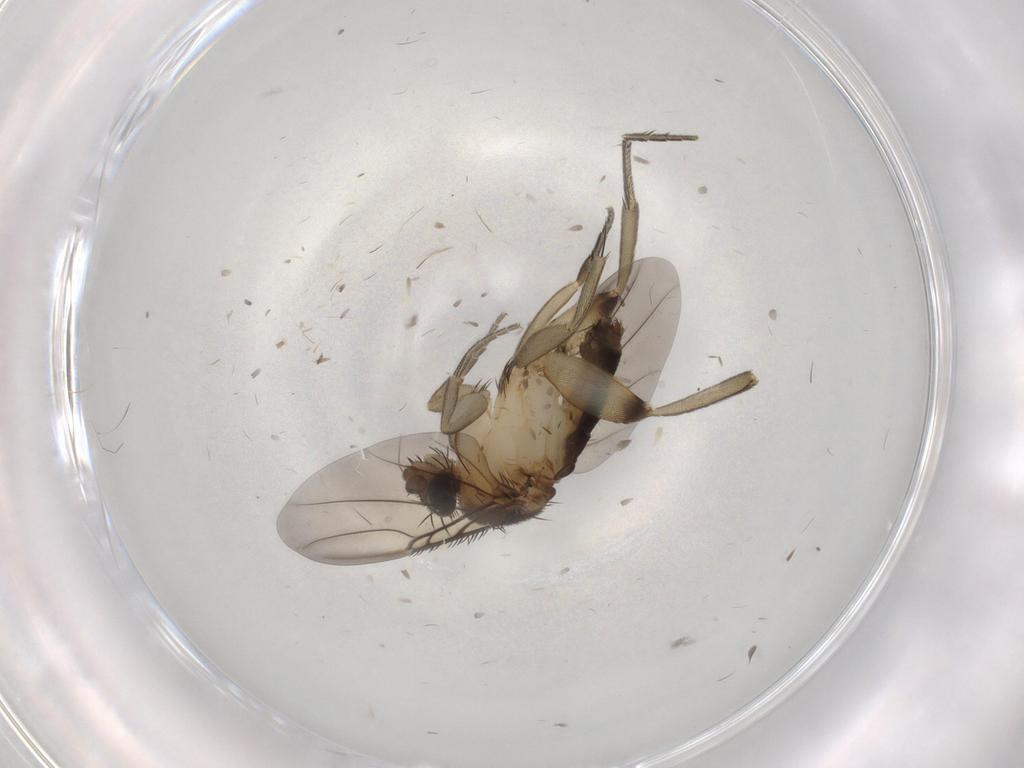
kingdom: Animalia
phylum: Arthropoda
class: Insecta
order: Diptera
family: Phoridae
